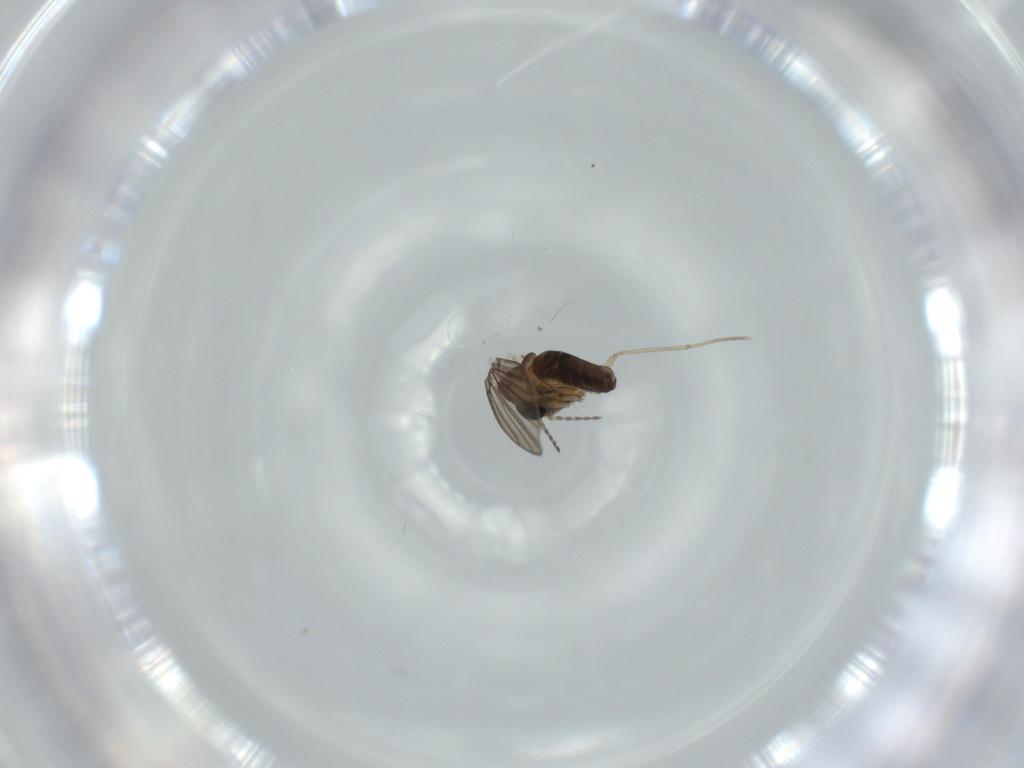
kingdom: Animalia
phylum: Arthropoda
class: Insecta
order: Diptera
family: Psychodidae
